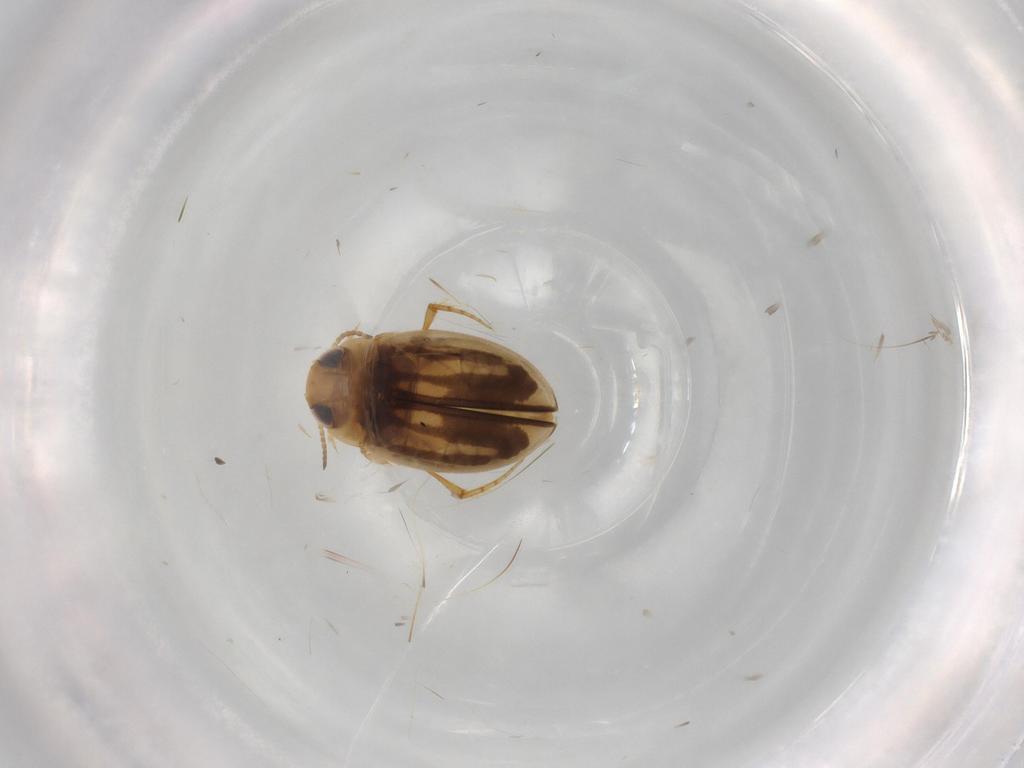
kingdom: Animalia
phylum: Arthropoda
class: Insecta
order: Coleoptera
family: Dytiscidae
